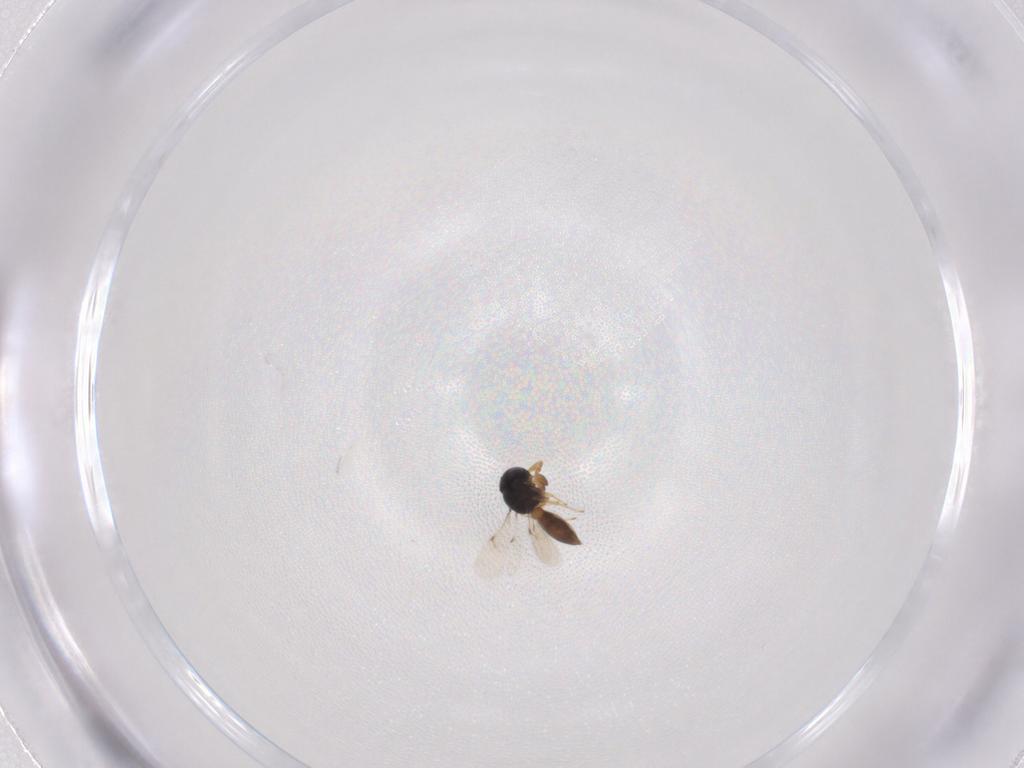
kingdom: Animalia
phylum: Arthropoda
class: Insecta
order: Hymenoptera
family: Scelionidae
